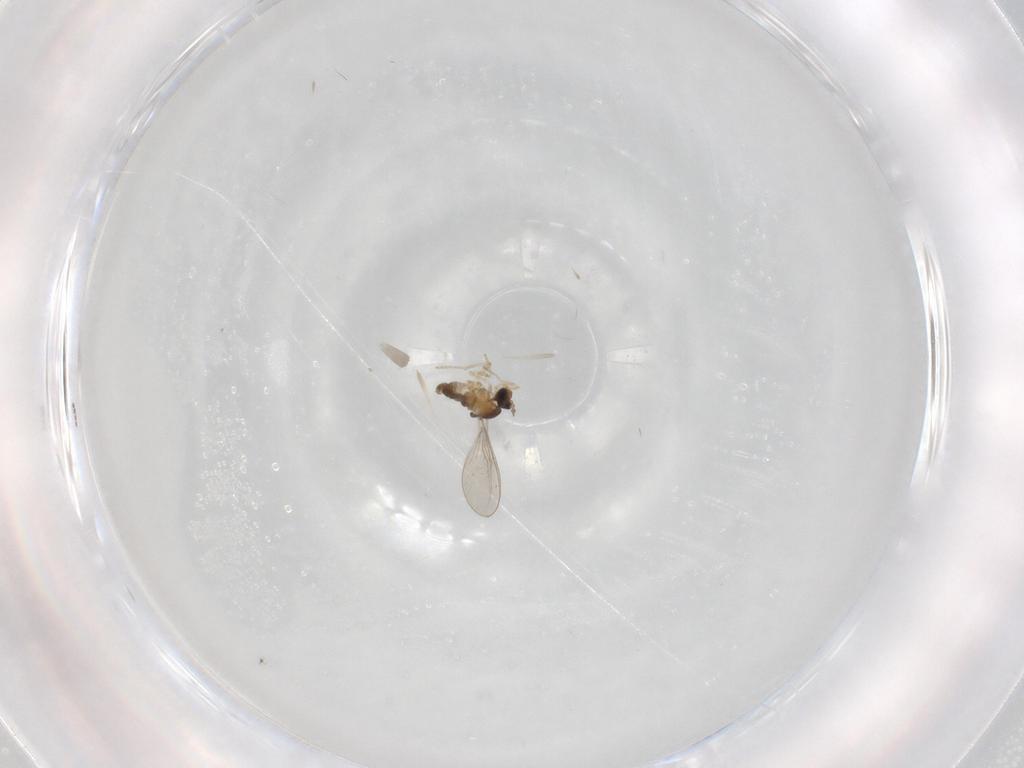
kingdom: Animalia
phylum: Arthropoda
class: Insecta
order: Diptera
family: Cecidomyiidae
